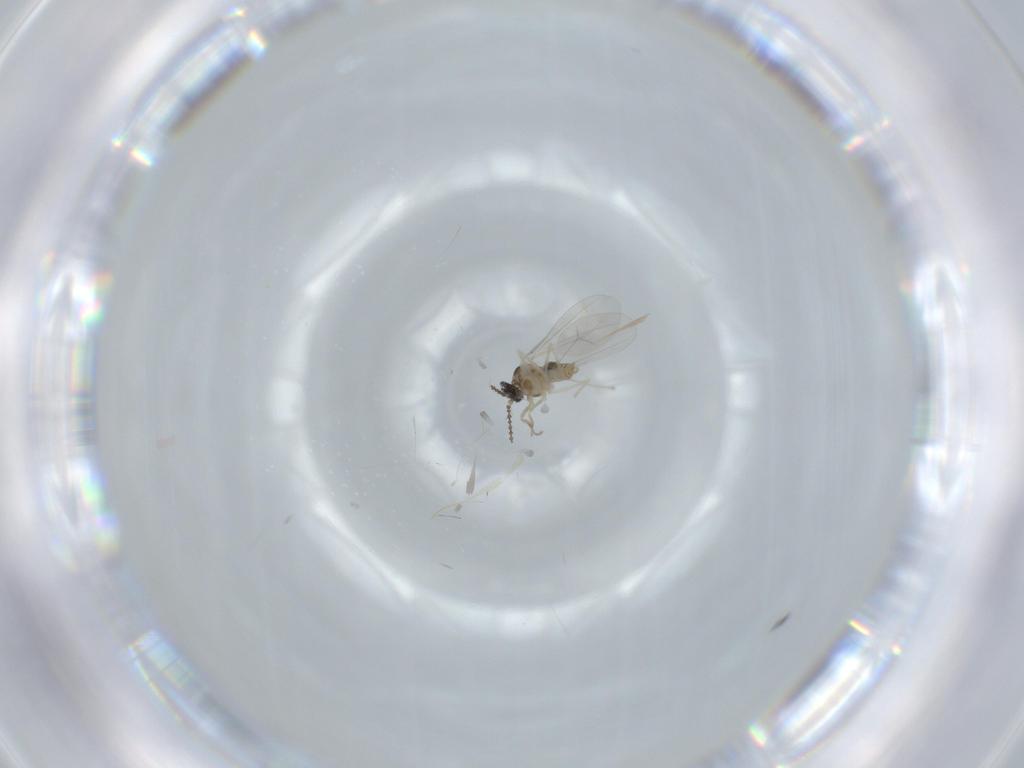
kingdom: Animalia
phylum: Arthropoda
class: Insecta
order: Diptera
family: Cecidomyiidae
